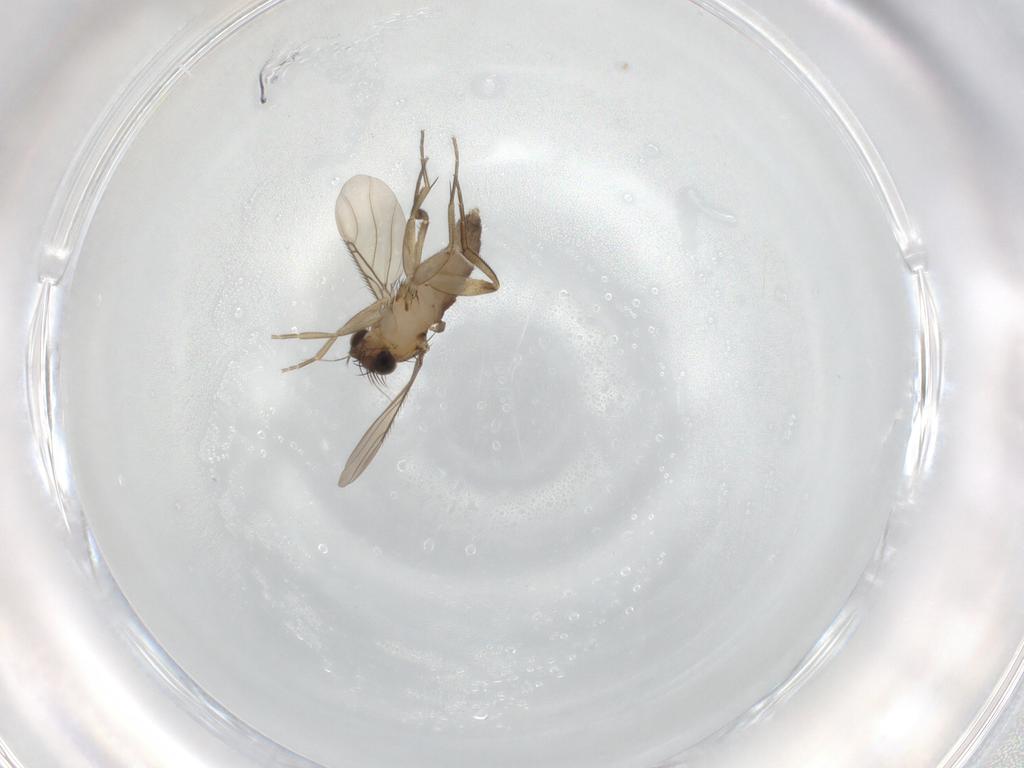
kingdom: Animalia
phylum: Arthropoda
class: Insecta
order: Diptera
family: Phoridae
